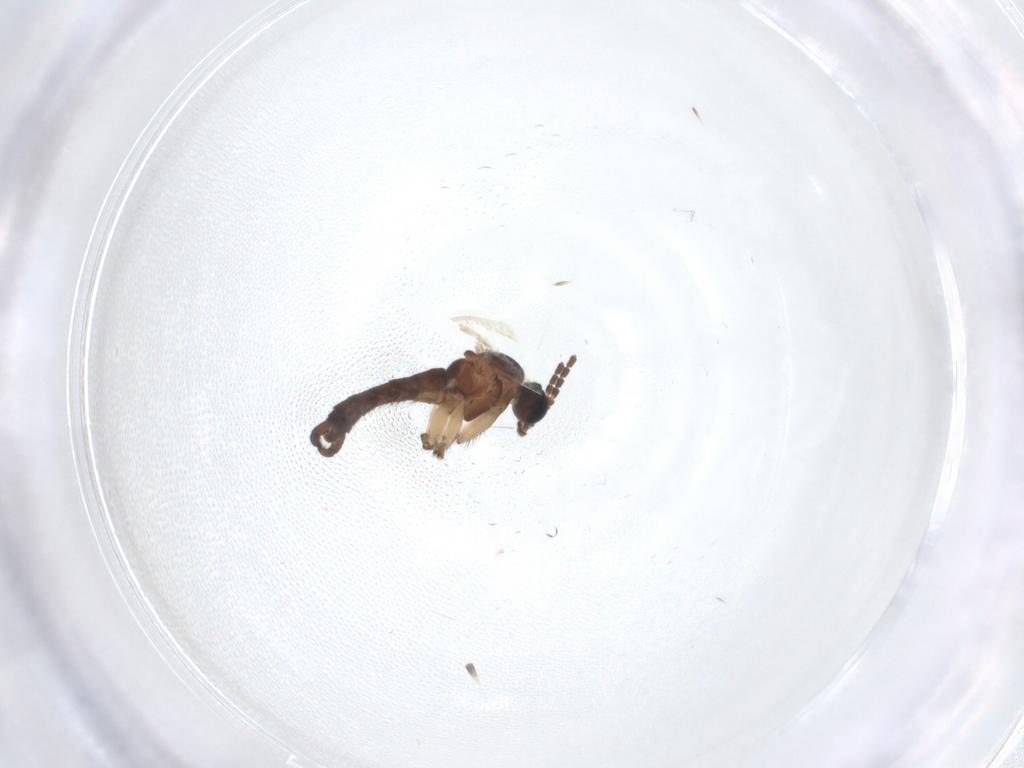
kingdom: Animalia
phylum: Arthropoda
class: Insecta
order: Diptera
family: Sciaridae
